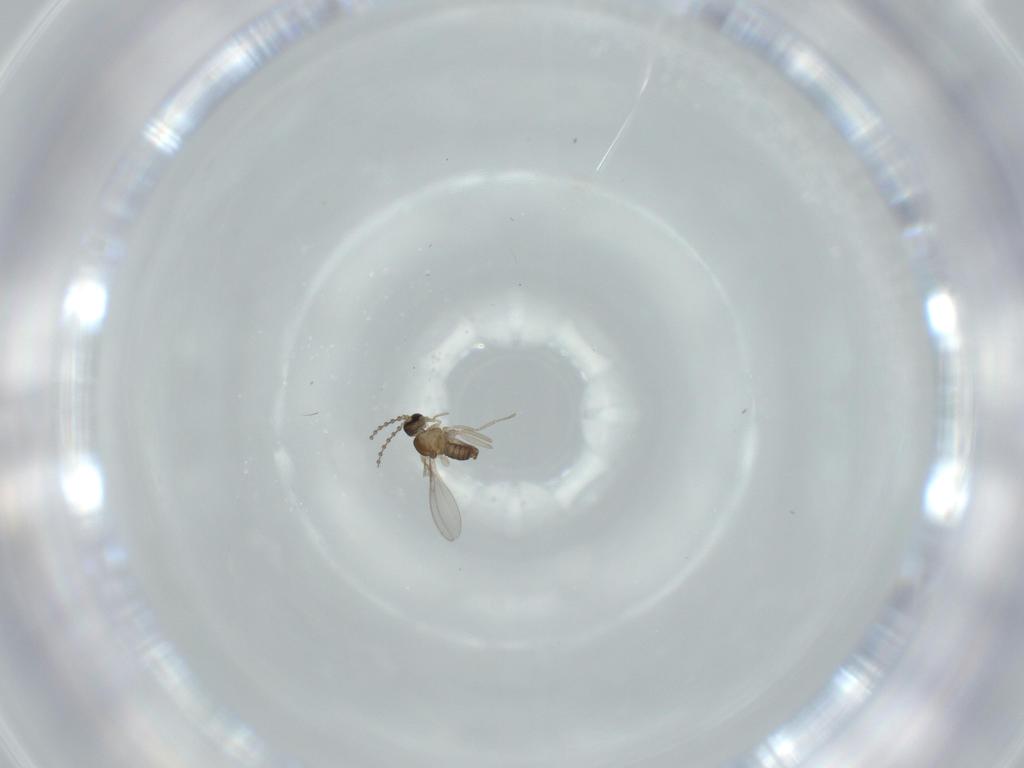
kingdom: Animalia
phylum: Arthropoda
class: Insecta
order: Diptera
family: Cecidomyiidae
